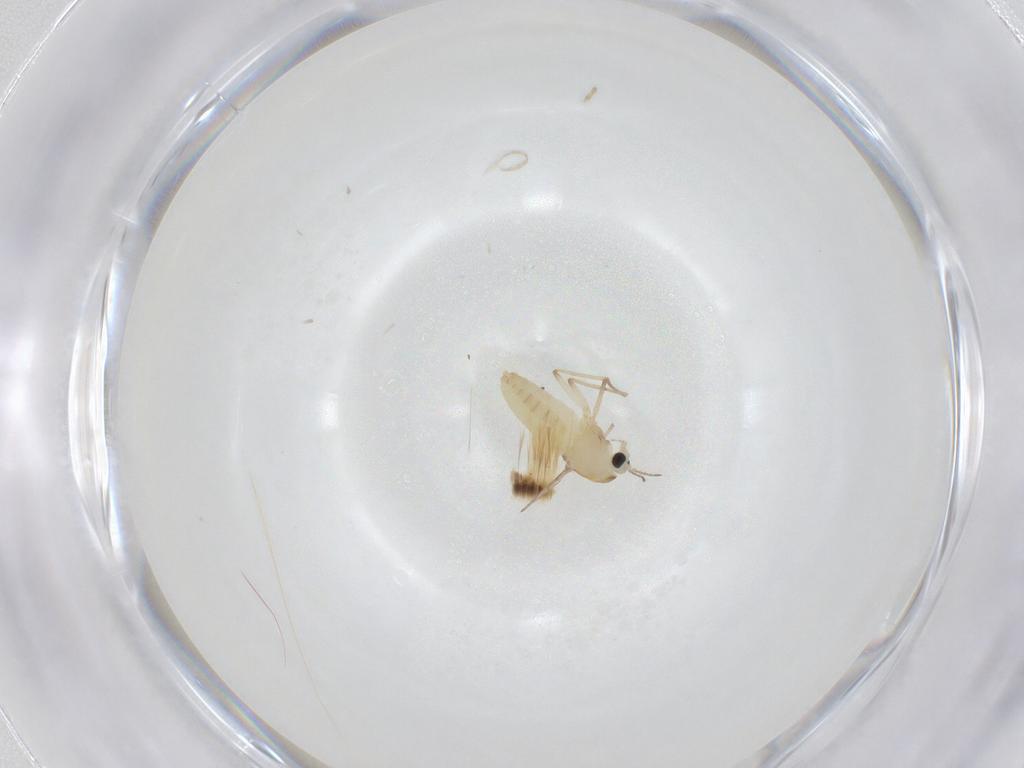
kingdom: Animalia
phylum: Arthropoda
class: Insecta
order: Diptera
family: Chironomidae
